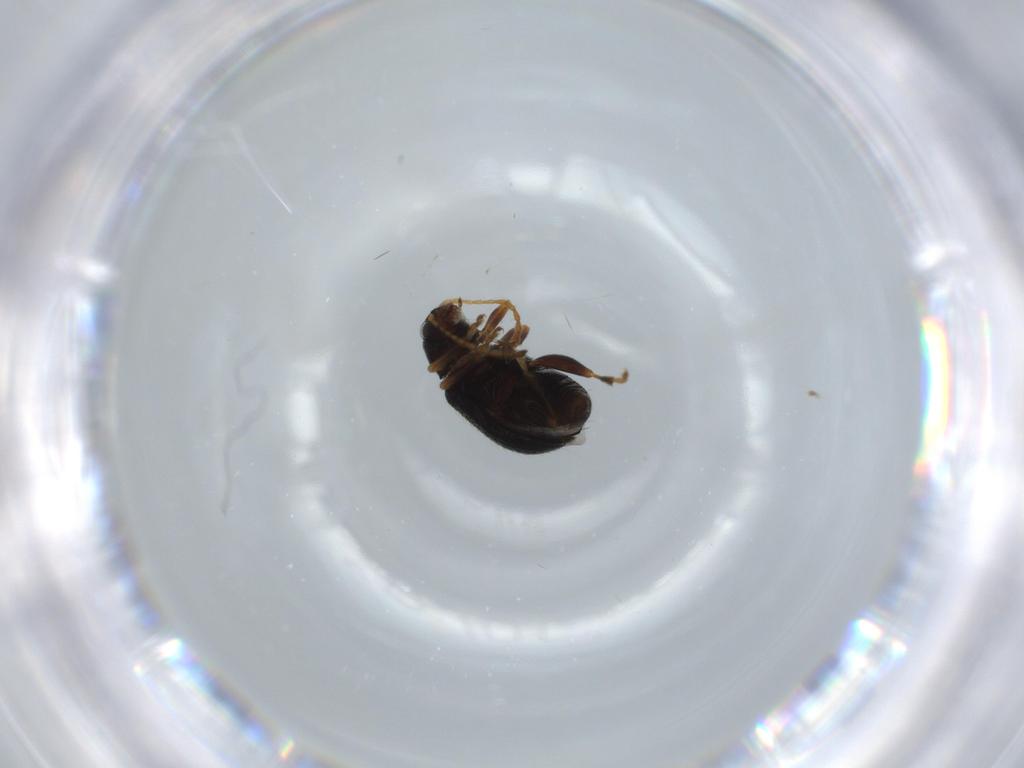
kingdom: Animalia
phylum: Arthropoda
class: Insecta
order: Coleoptera
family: Chrysomelidae
